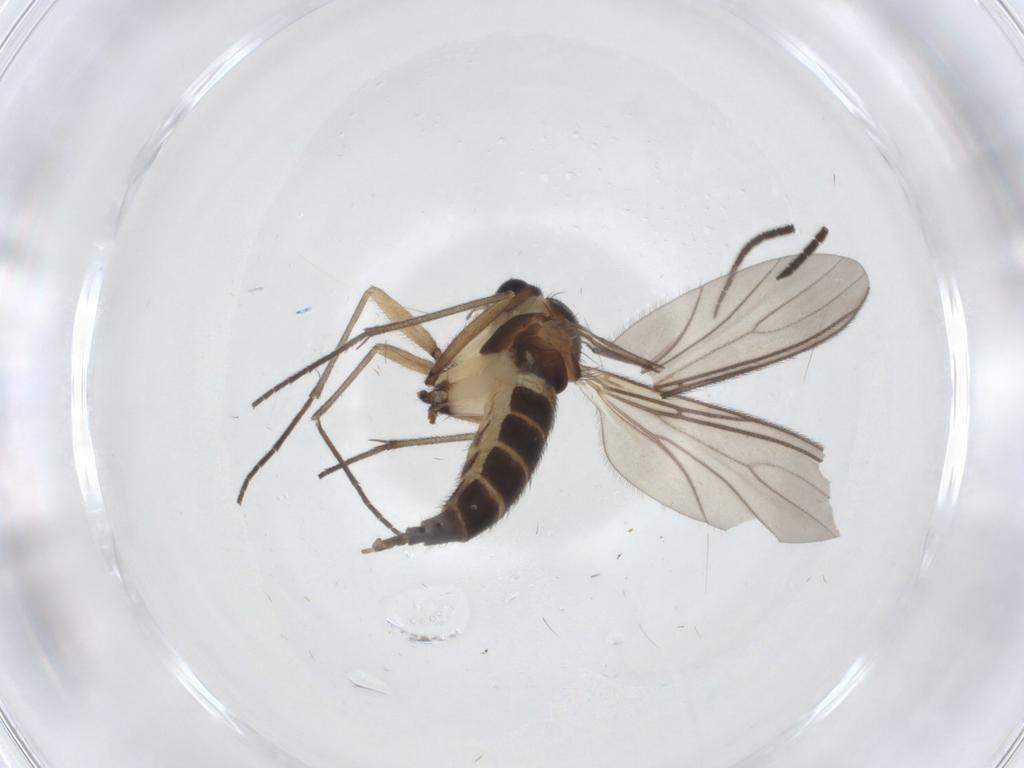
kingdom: Animalia
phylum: Arthropoda
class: Insecta
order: Diptera
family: Sciaridae
